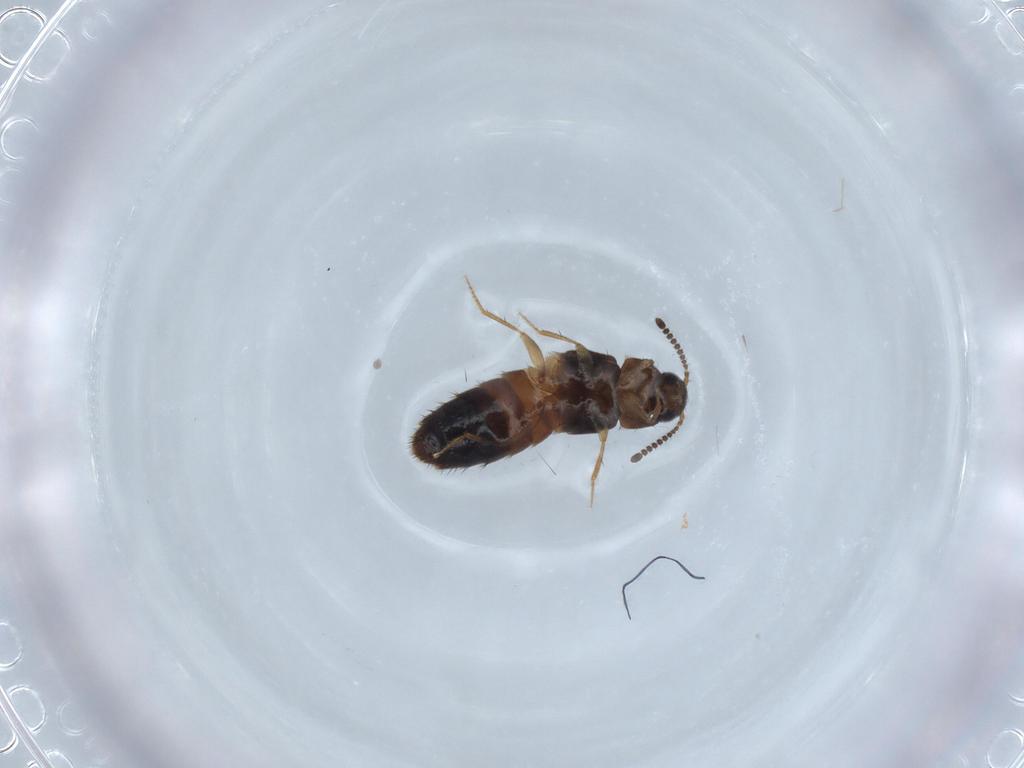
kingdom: Animalia
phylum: Arthropoda
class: Insecta
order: Coleoptera
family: Staphylinidae
